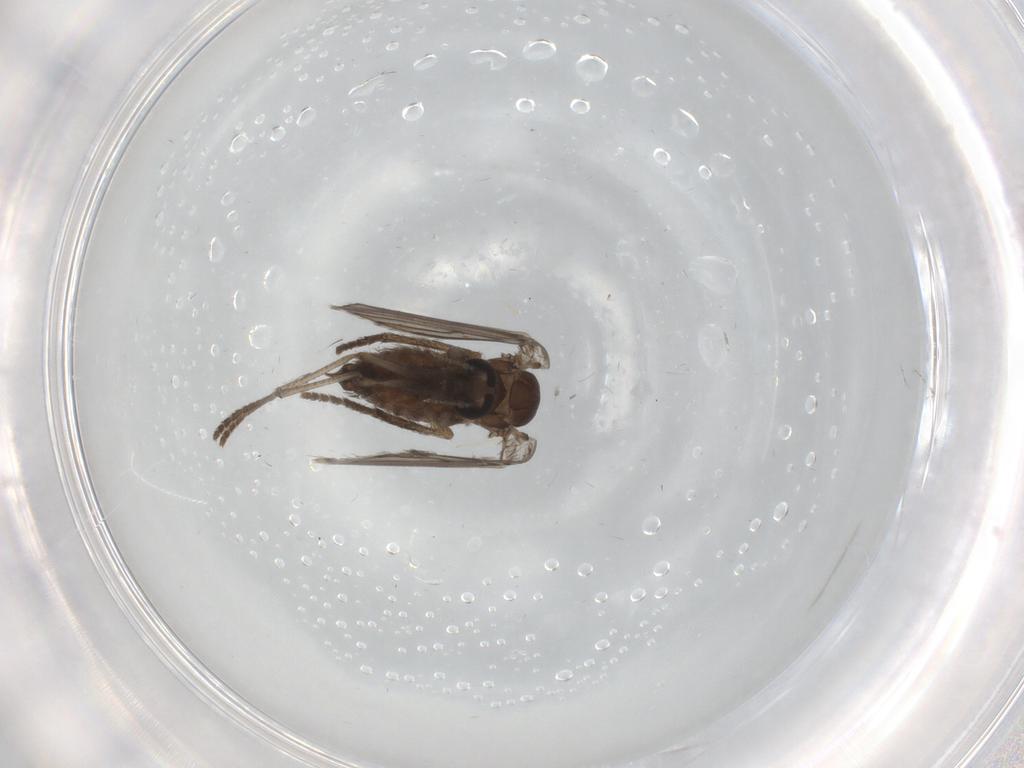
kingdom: Animalia
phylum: Arthropoda
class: Insecta
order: Diptera
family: Psychodidae
